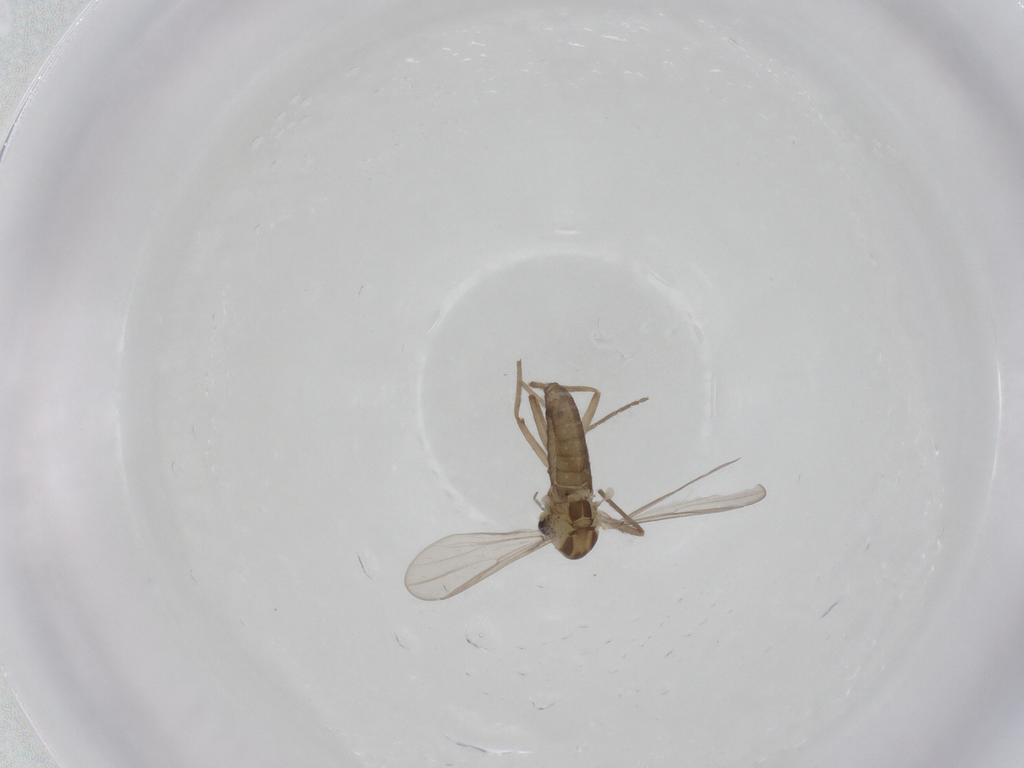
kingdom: Animalia
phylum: Arthropoda
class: Insecta
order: Diptera
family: Chironomidae
